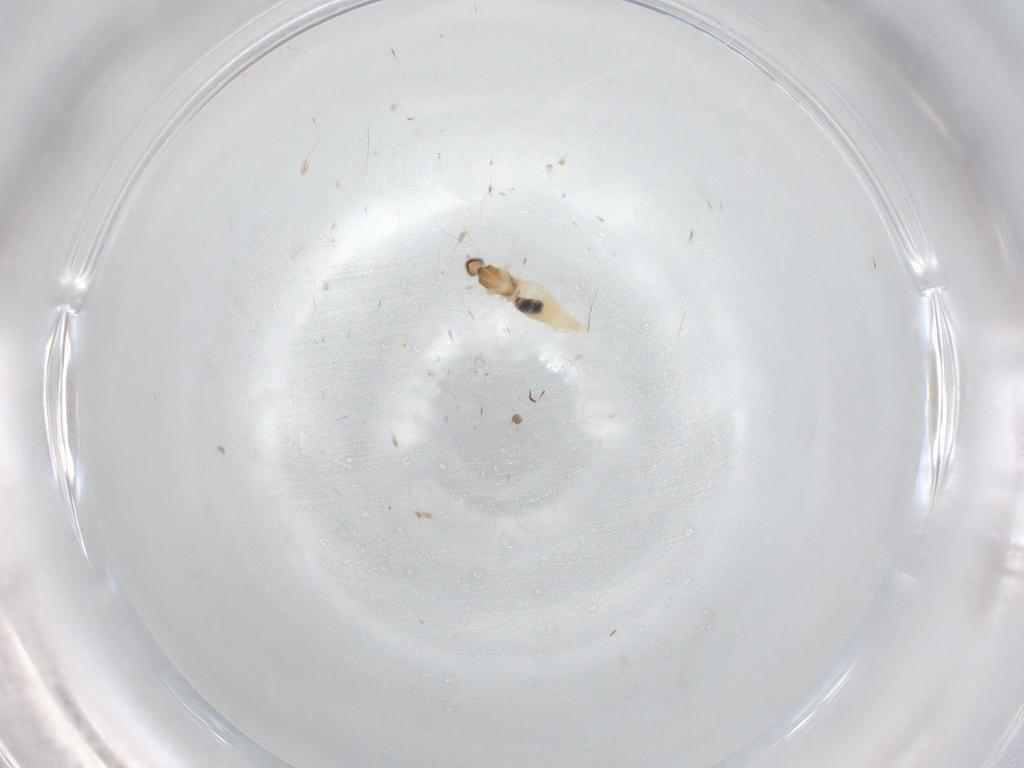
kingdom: Animalia
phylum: Arthropoda
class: Insecta
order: Diptera
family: Cecidomyiidae
